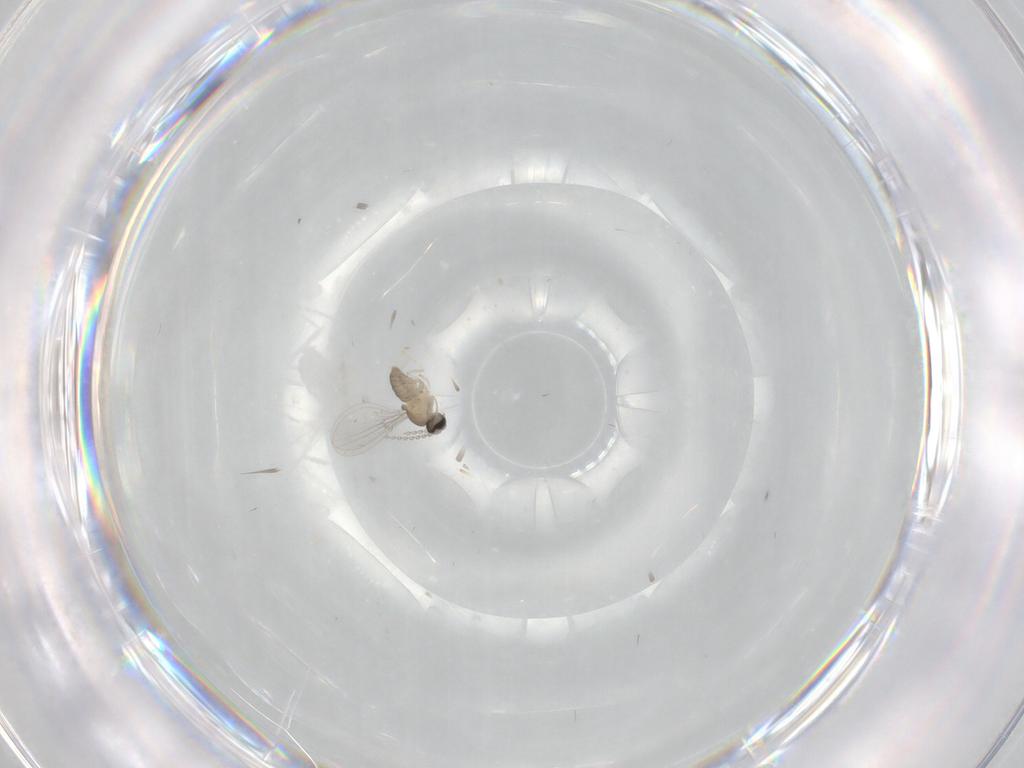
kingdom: Animalia
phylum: Arthropoda
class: Insecta
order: Diptera
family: Cecidomyiidae
